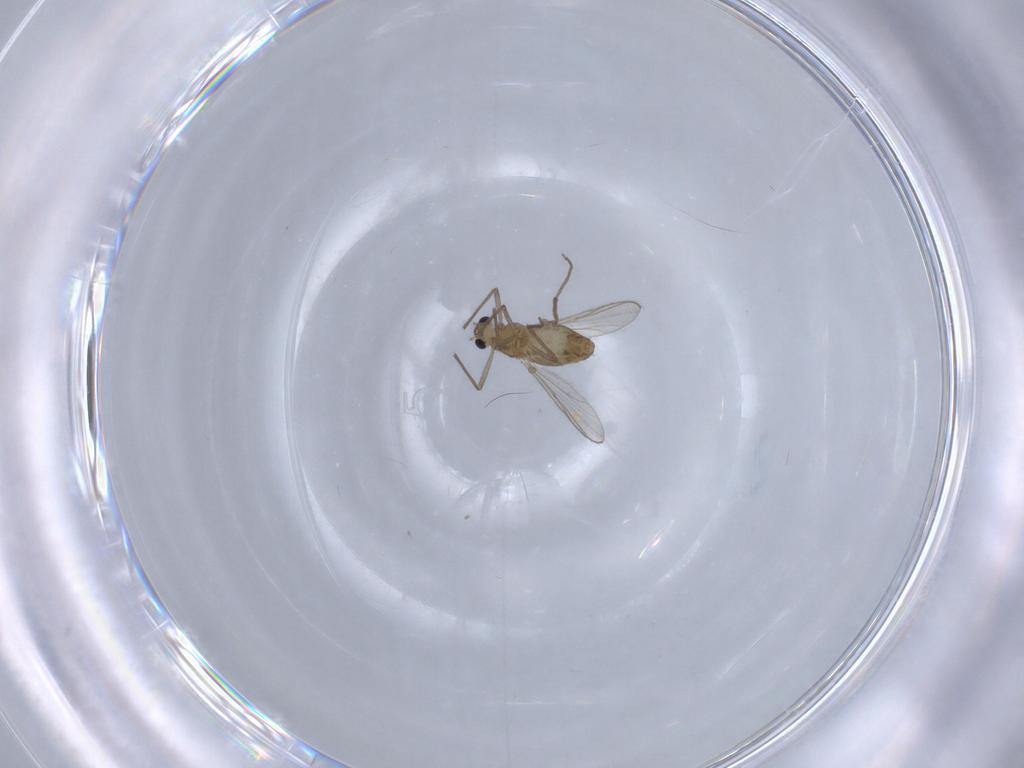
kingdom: Animalia
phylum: Arthropoda
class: Insecta
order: Diptera
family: Chironomidae
